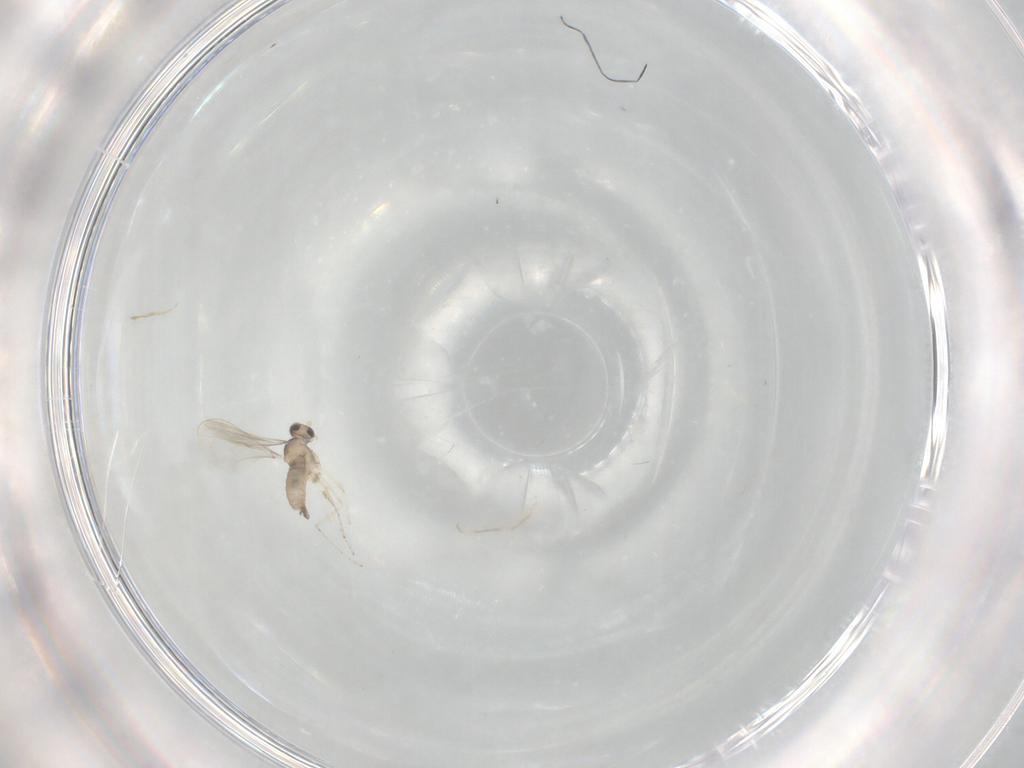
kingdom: Animalia
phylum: Arthropoda
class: Insecta
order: Diptera
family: Cecidomyiidae
